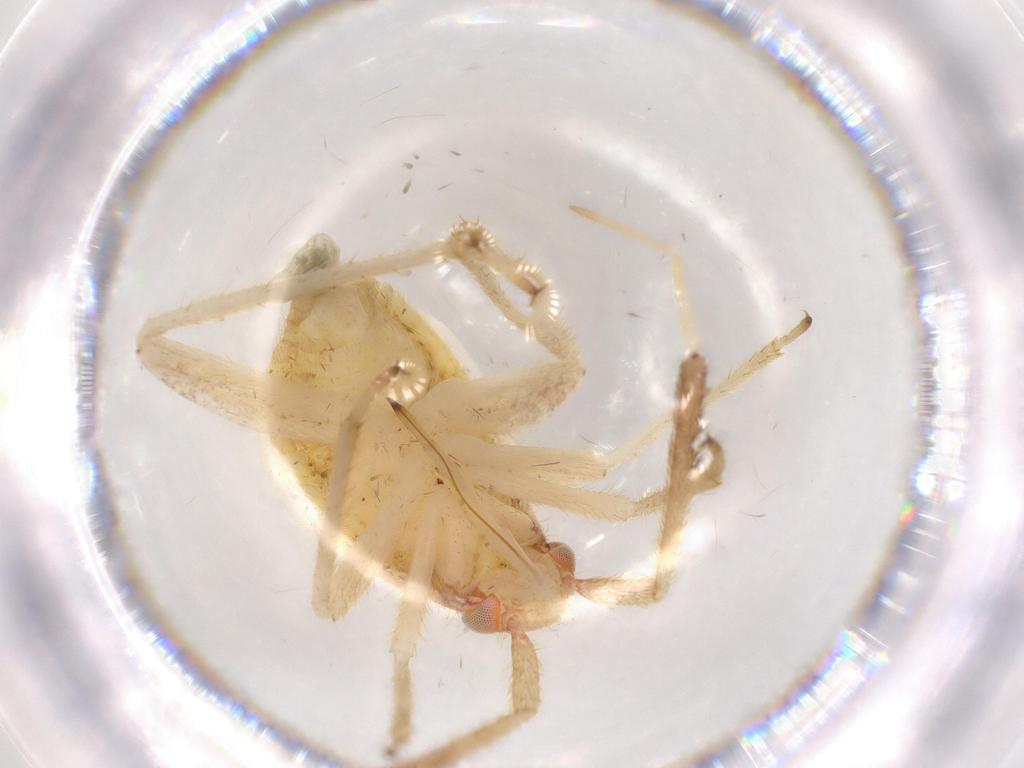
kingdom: Animalia
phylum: Arthropoda
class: Insecta
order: Hemiptera
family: Miridae
